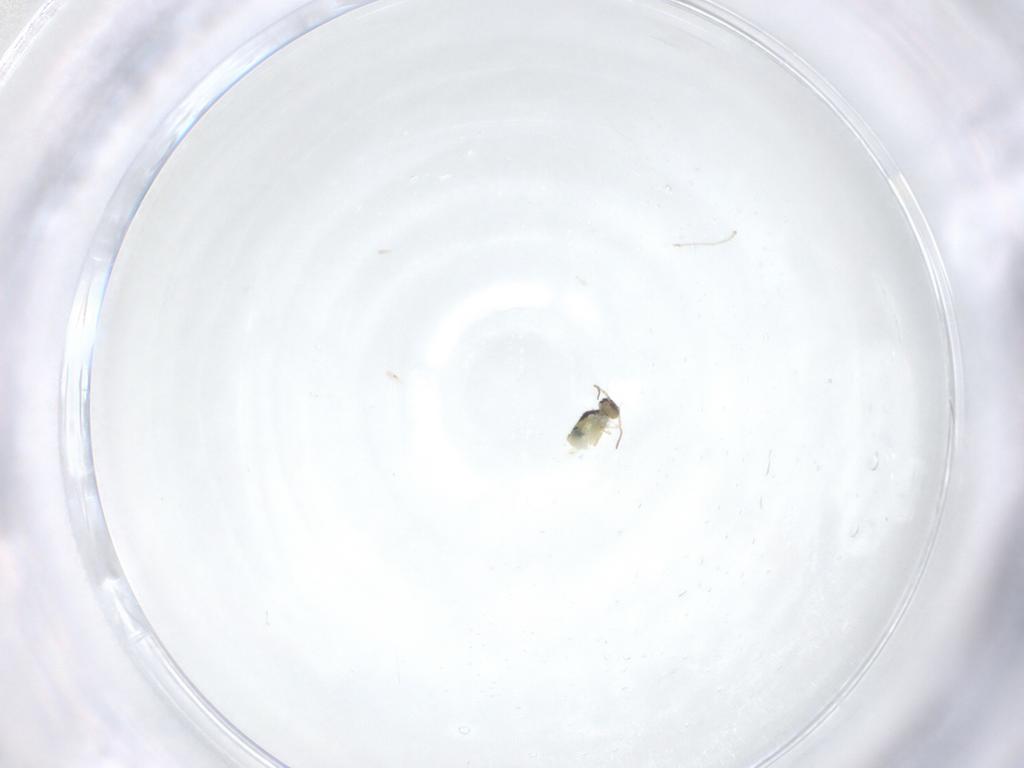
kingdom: Animalia
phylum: Arthropoda
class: Collembola
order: Symphypleona
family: Bourletiellidae
